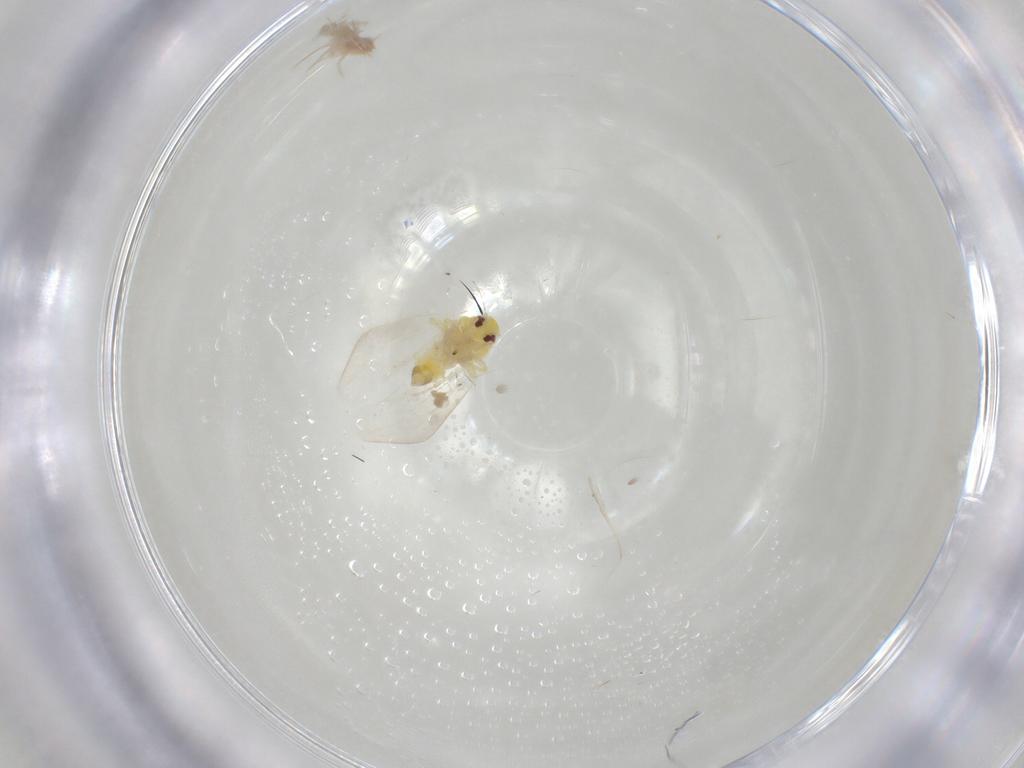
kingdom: Animalia
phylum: Arthropoda
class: Insecta
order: Hemiptera
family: Aleyrodidae
